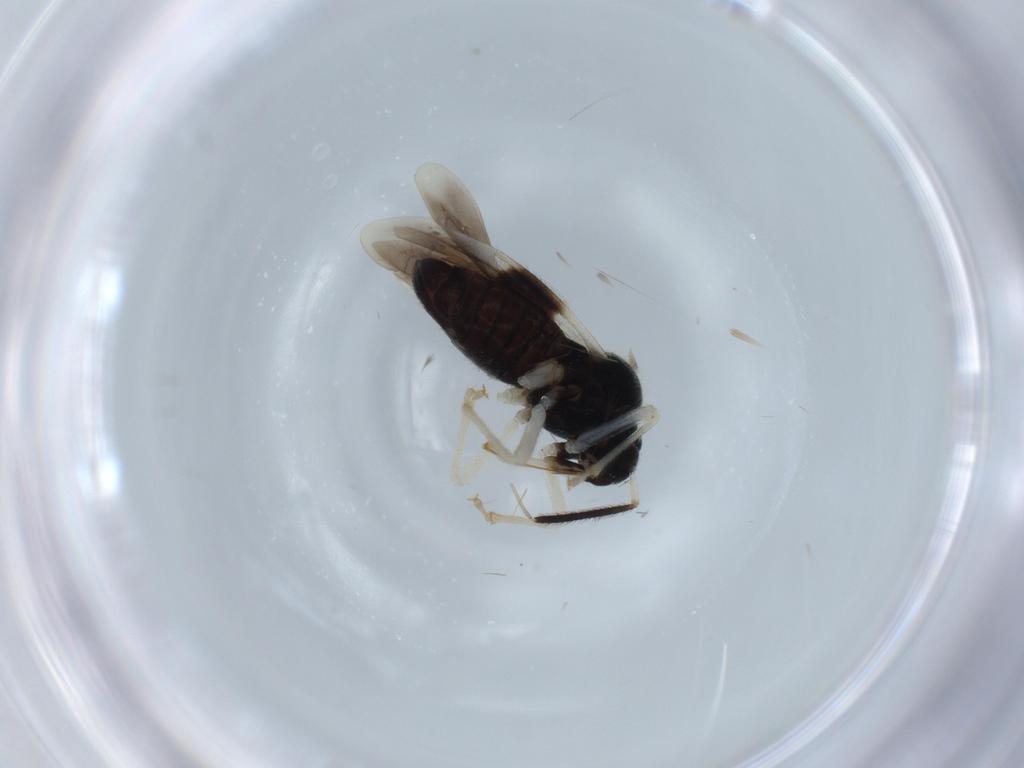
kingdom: Animalia
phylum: Arthropoda
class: Insecta
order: Hemiptera
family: Miridae
